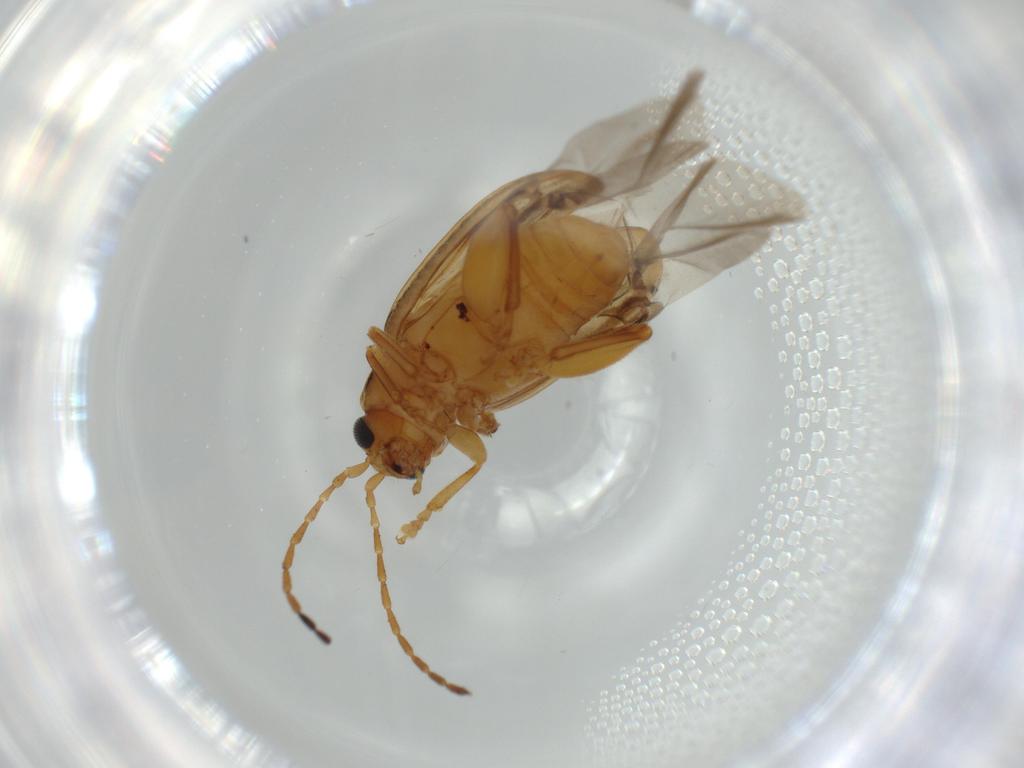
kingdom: Animalia
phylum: Arthropoda
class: Insecta
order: Coleoptera
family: Chrysomelidae
